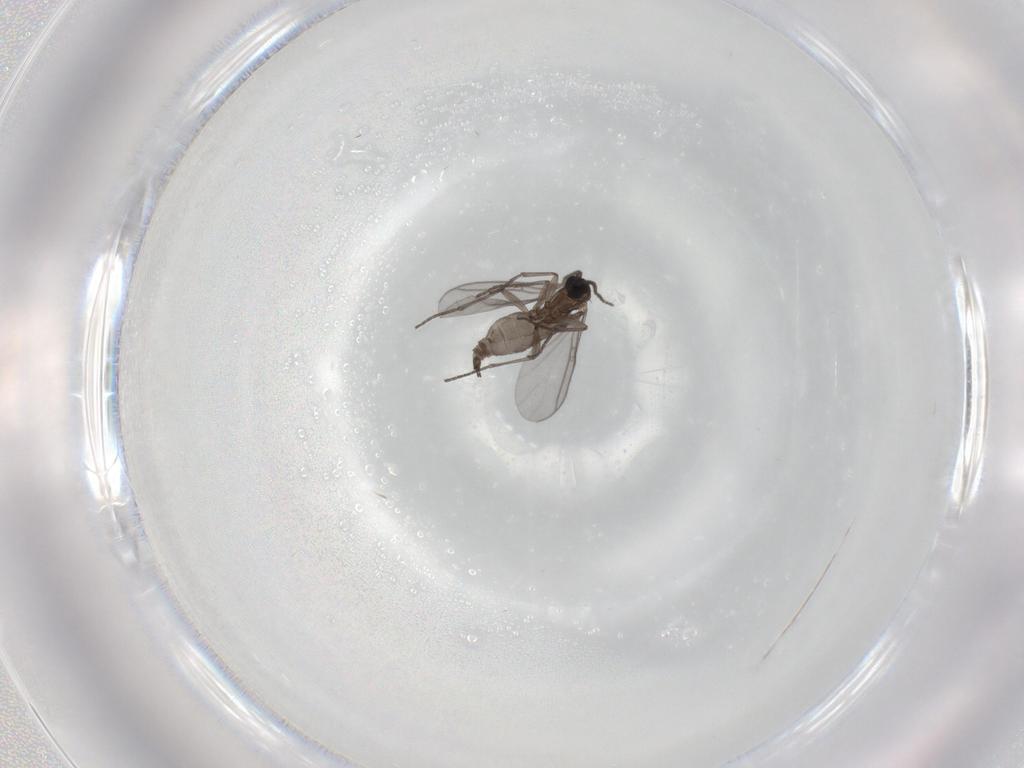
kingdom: Animalia
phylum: Arthropoda
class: Insecta
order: Diptera
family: Sciaridae
